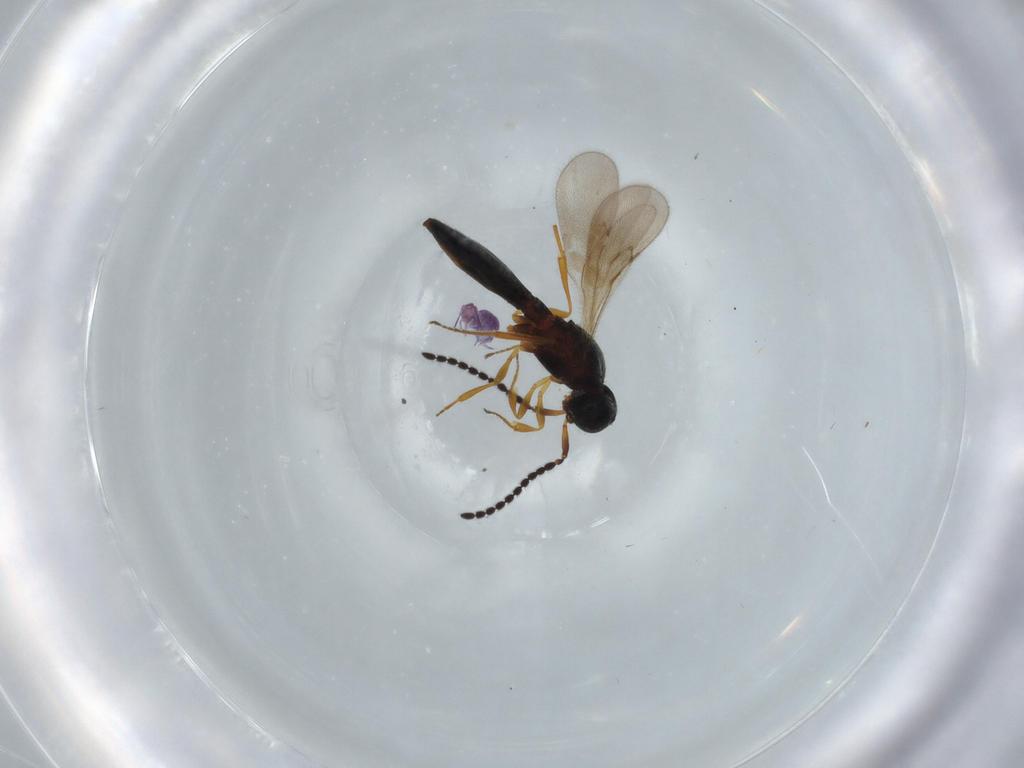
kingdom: Animalia
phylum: Arthropoda
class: Insecta
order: Hymenoptera
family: Scelionidae
